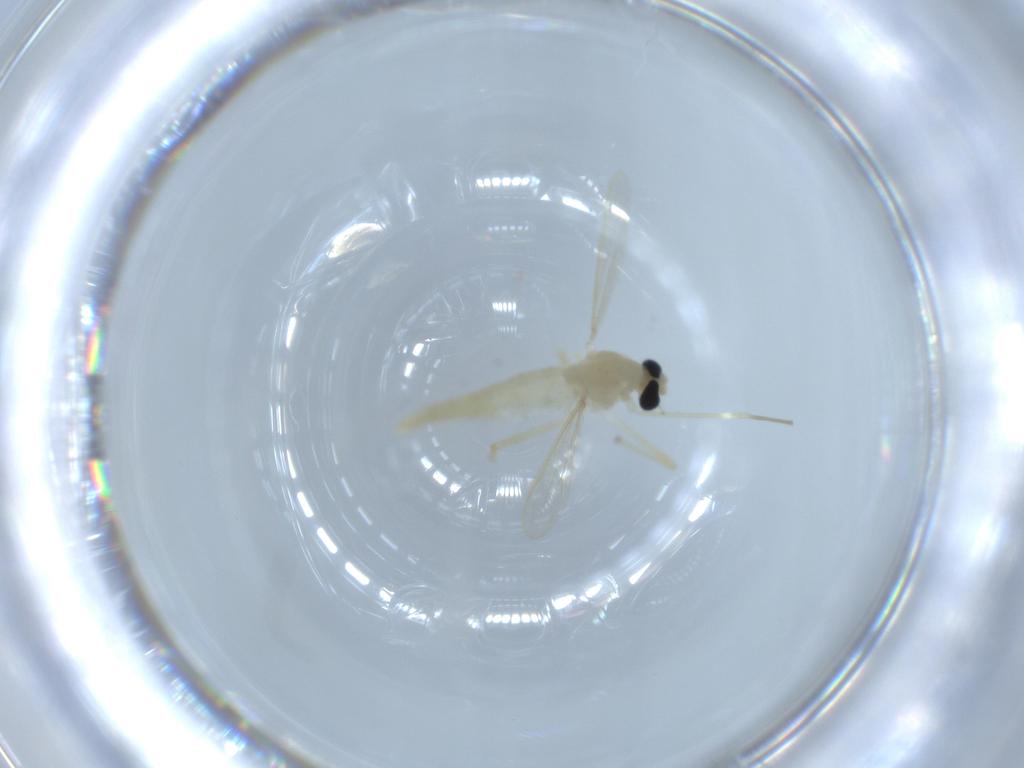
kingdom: Animalia
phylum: Arthropoda
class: Insecta
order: Diptera
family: Chironomidae
